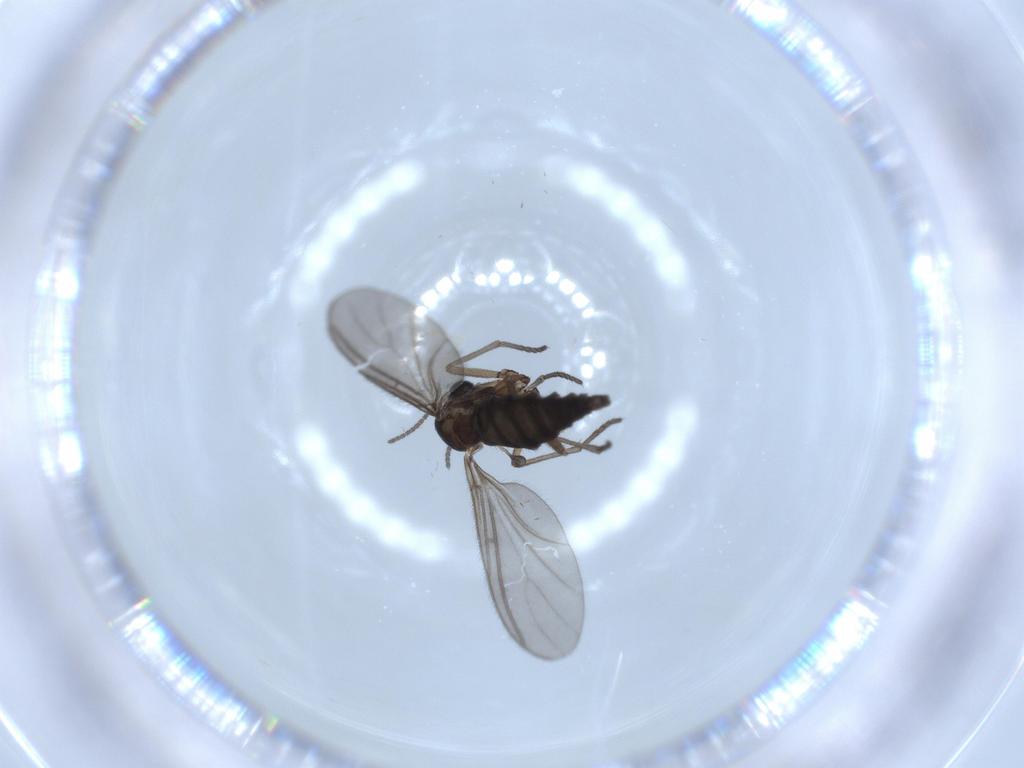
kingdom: Animalia
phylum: Arthropoda
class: Insecta
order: Diptera
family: Sciaridae
